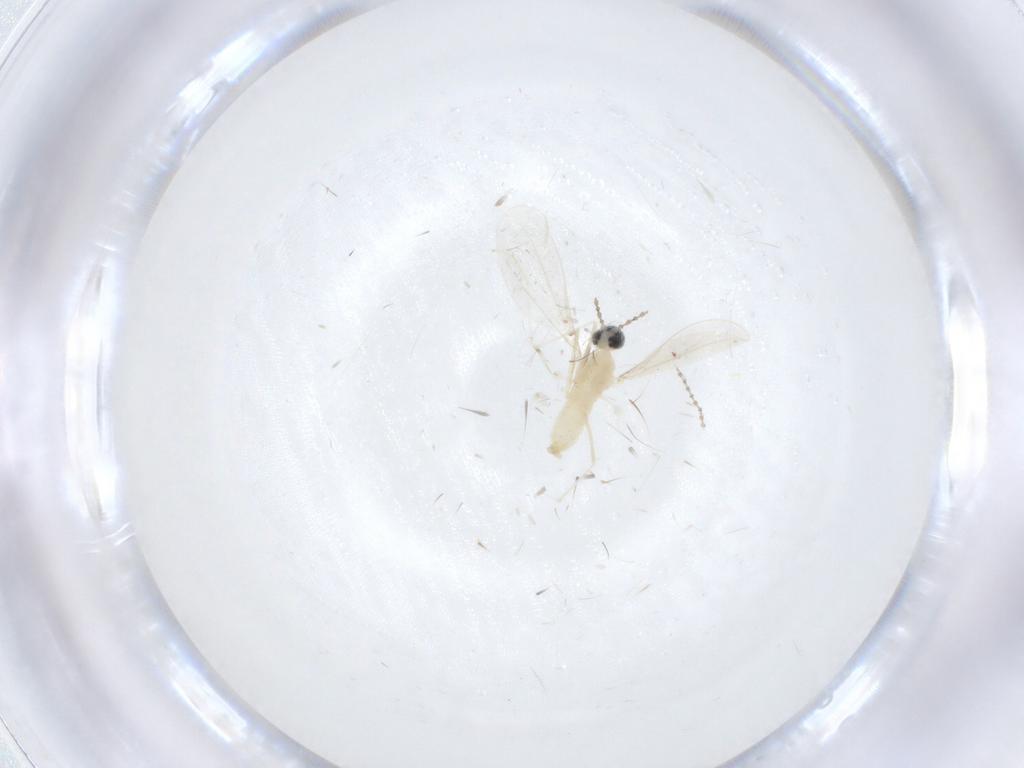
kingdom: Animalia
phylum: Arthropoda
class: Insecta
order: Diptera
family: Cecidomyiidae
